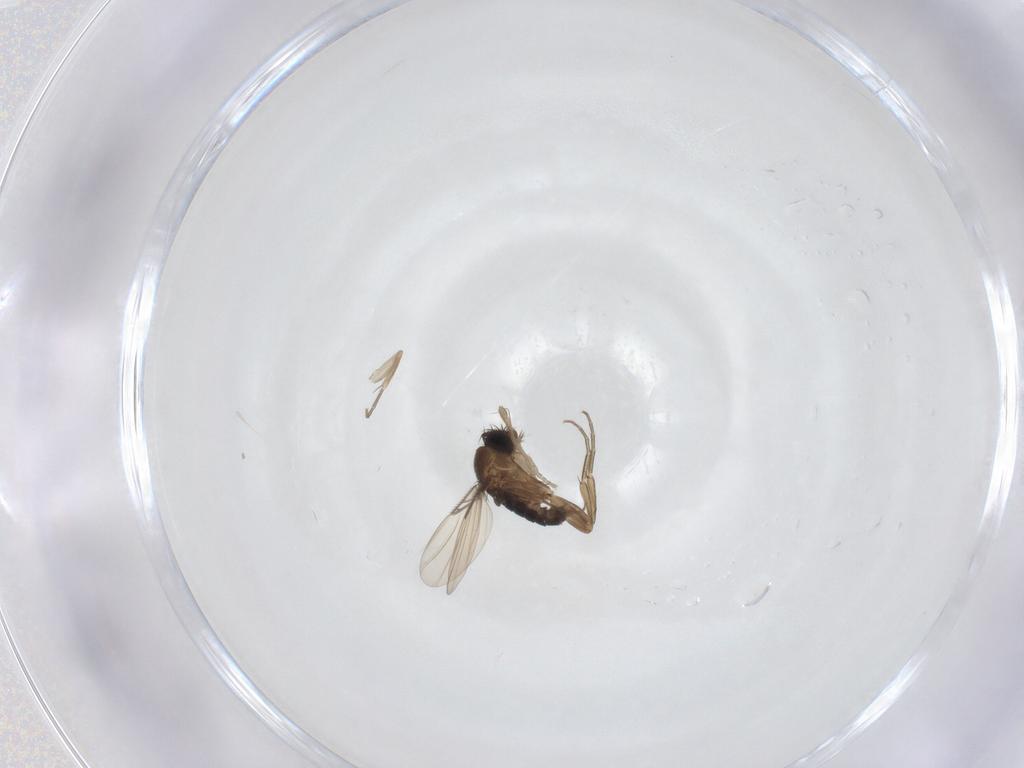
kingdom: Animalia
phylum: Arthropoda
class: Insecta
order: Diptera
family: Phoridae
